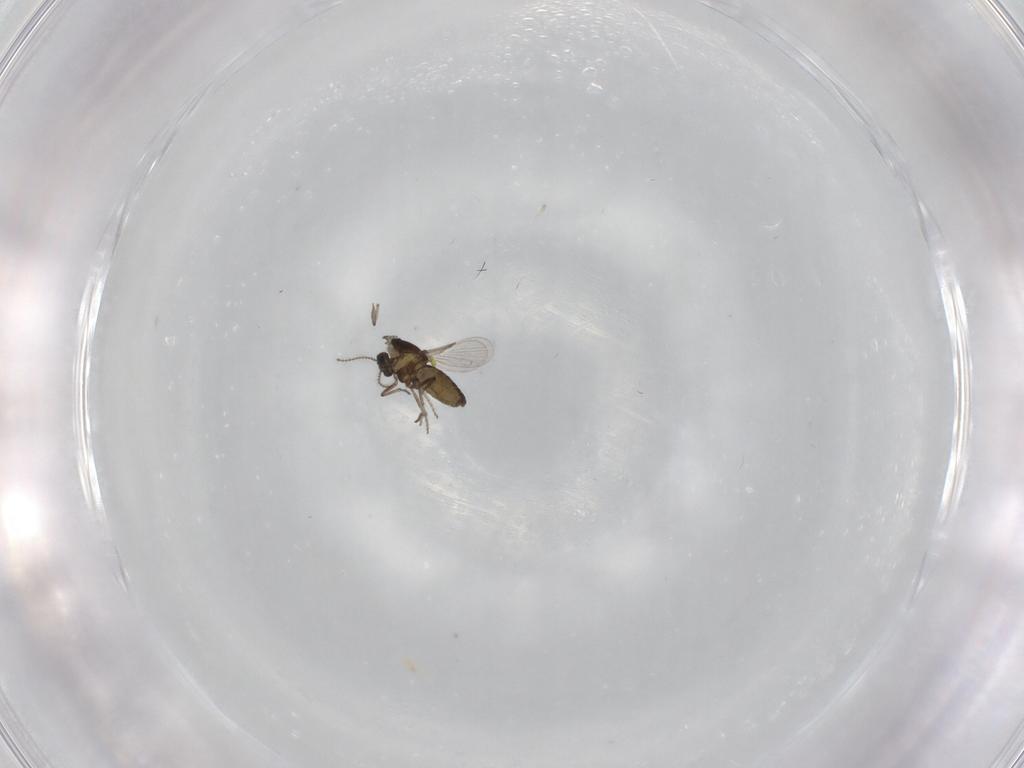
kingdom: Animalia
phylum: Arthropoda
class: Insecta
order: Diptera
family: Ceratopogonidae
